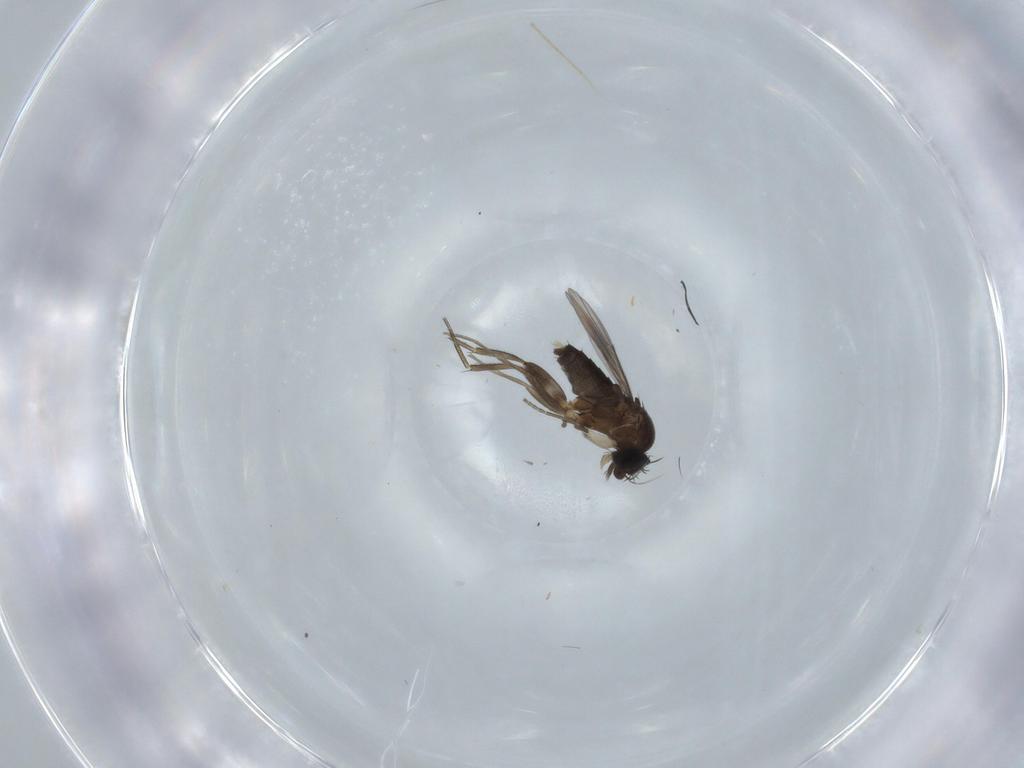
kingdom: Animalia
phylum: Arthropoda
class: Insecta
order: Diptera
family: Phoridae
